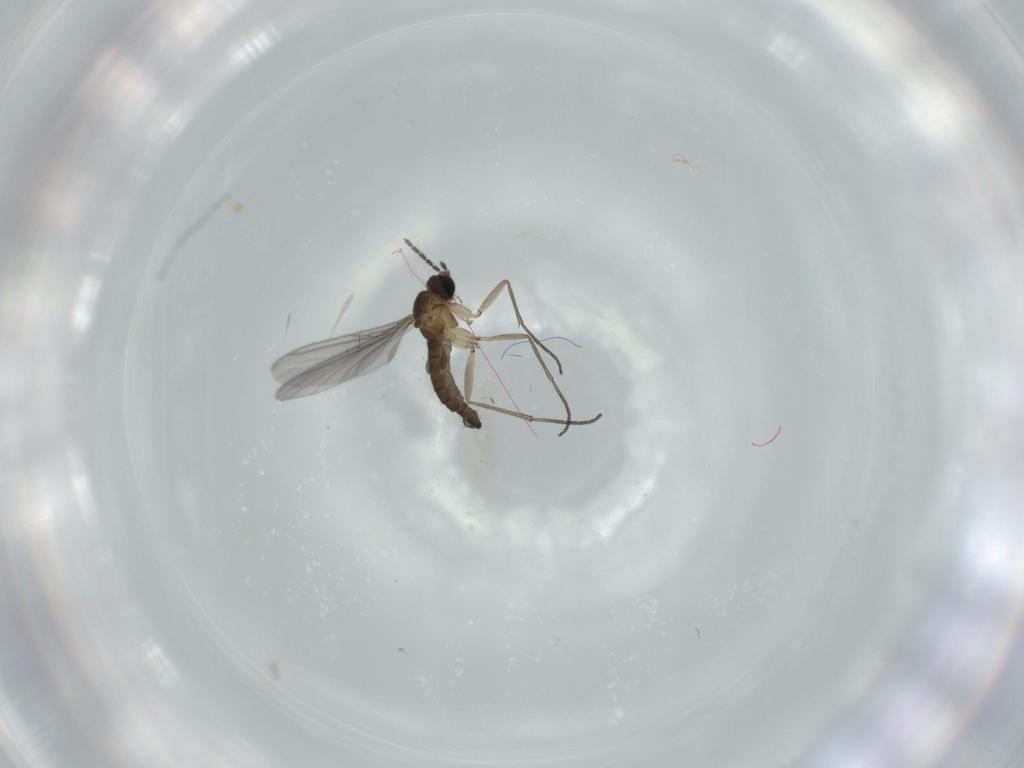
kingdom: Animalia
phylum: Arthropoda
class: Insecta
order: Diptera
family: Sciaridae
